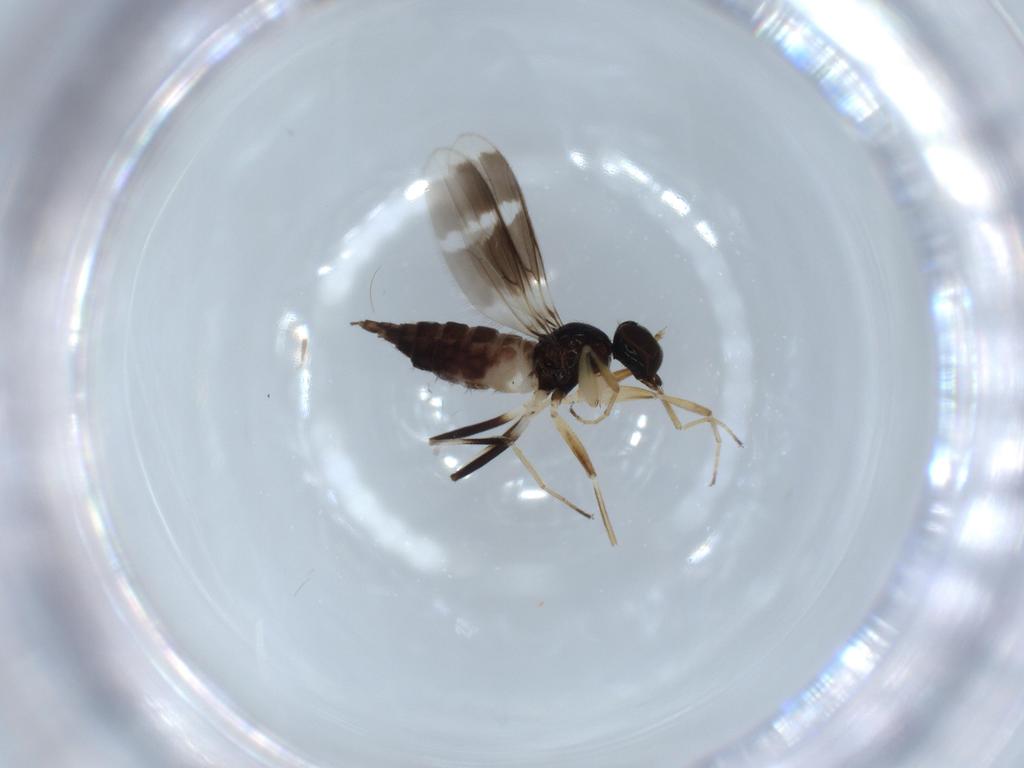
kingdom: Animalia
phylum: Arthropoda
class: Insecta
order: Diptera
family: Hybotidae
